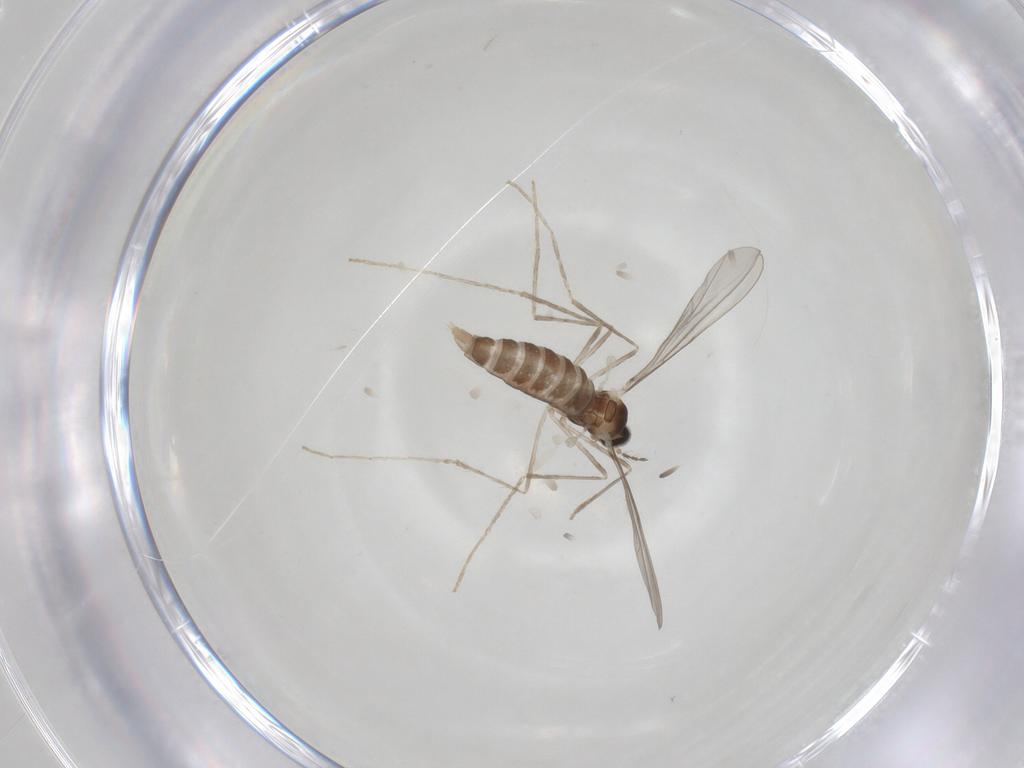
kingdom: Animalia
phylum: Arthropoda
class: Insecta
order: Diptera
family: Cecidomyiidae
